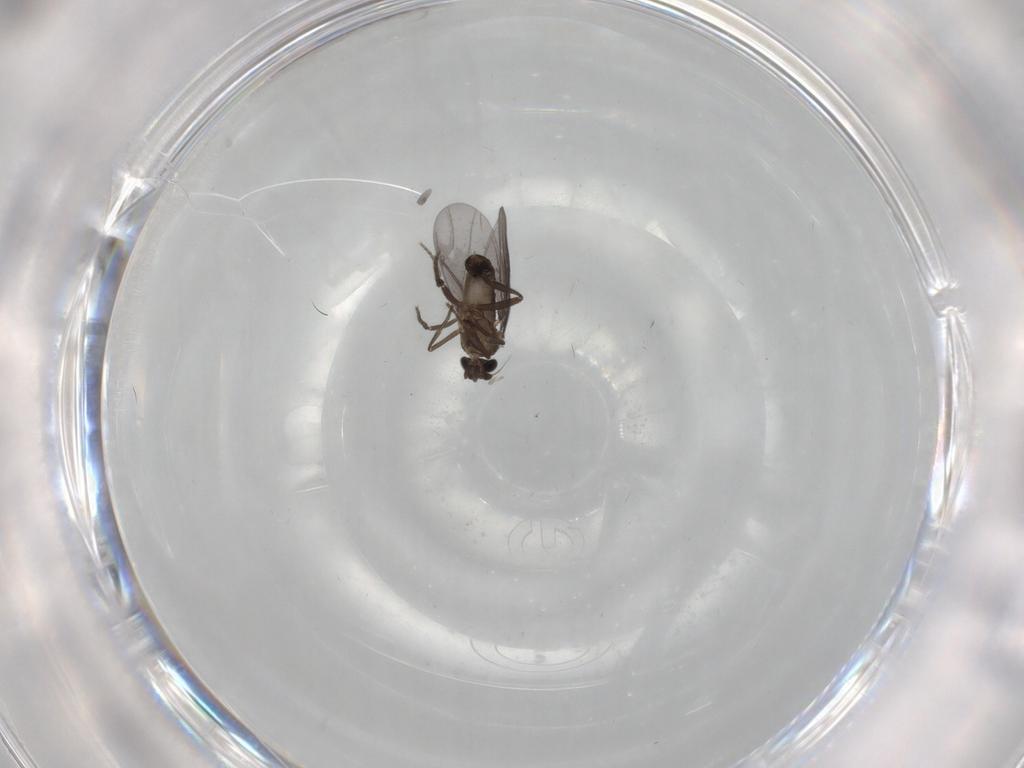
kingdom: Animalia
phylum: Arthropoda
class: Insecta
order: Diptera
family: Phoridae
